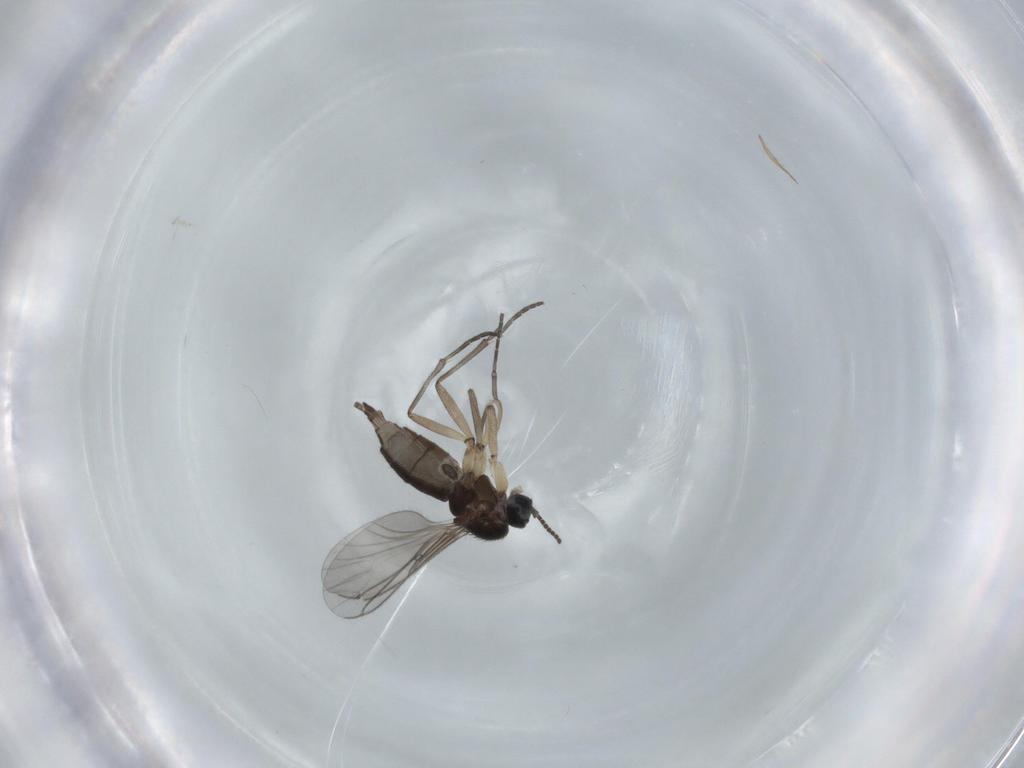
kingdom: Animalia
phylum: Arthropoda
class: Insecta
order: Diptera
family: Sciaridae
